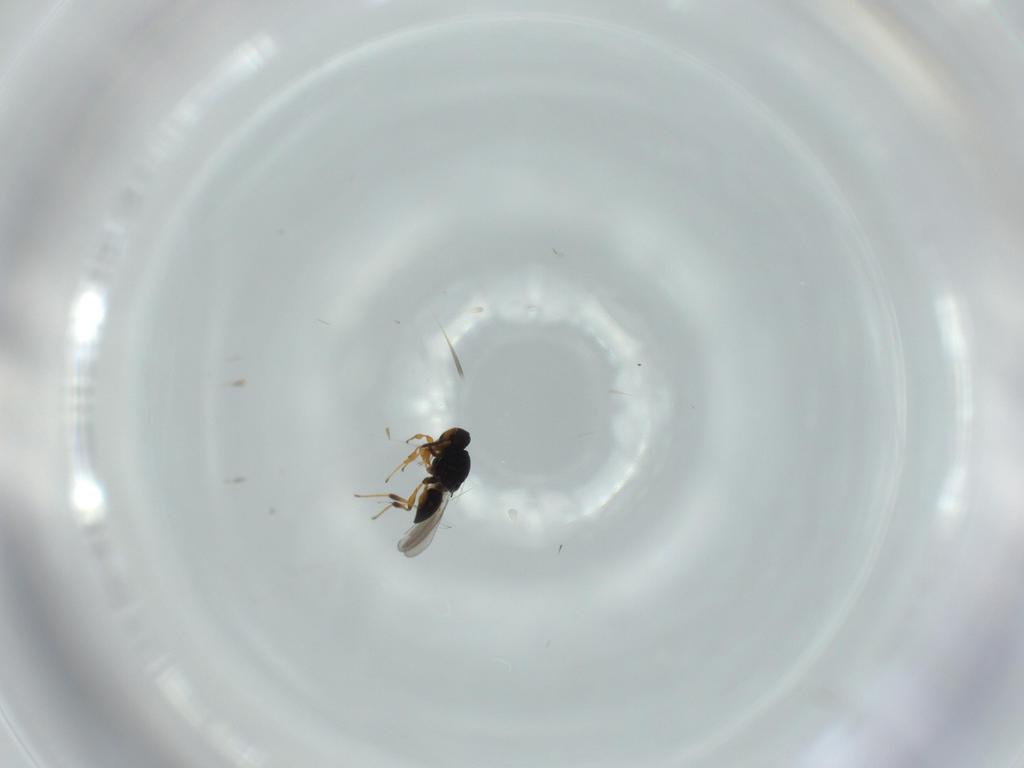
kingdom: Animalia
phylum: Arthropoda
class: Insecta
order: Hymenoptera
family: Platygastridae
